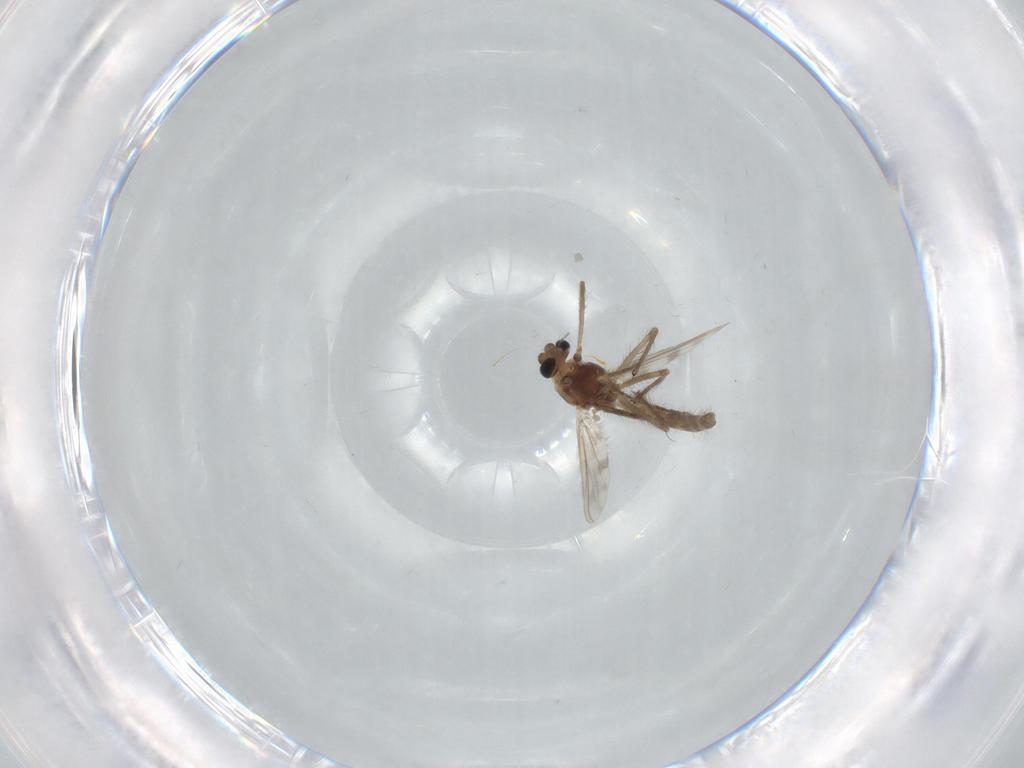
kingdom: Animalia
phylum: Arthropoda
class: Insecta
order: Diptera
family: Chironomidae
